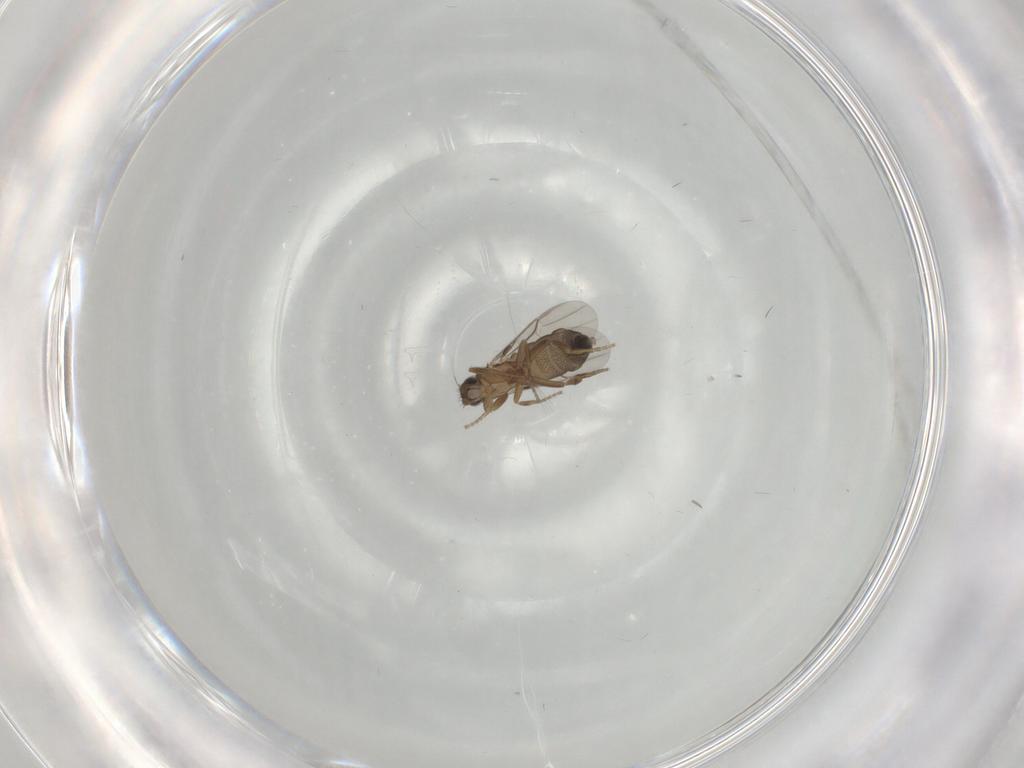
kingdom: Animalia
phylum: Arthropoda
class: Insecta
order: Diptera
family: Phoridae
